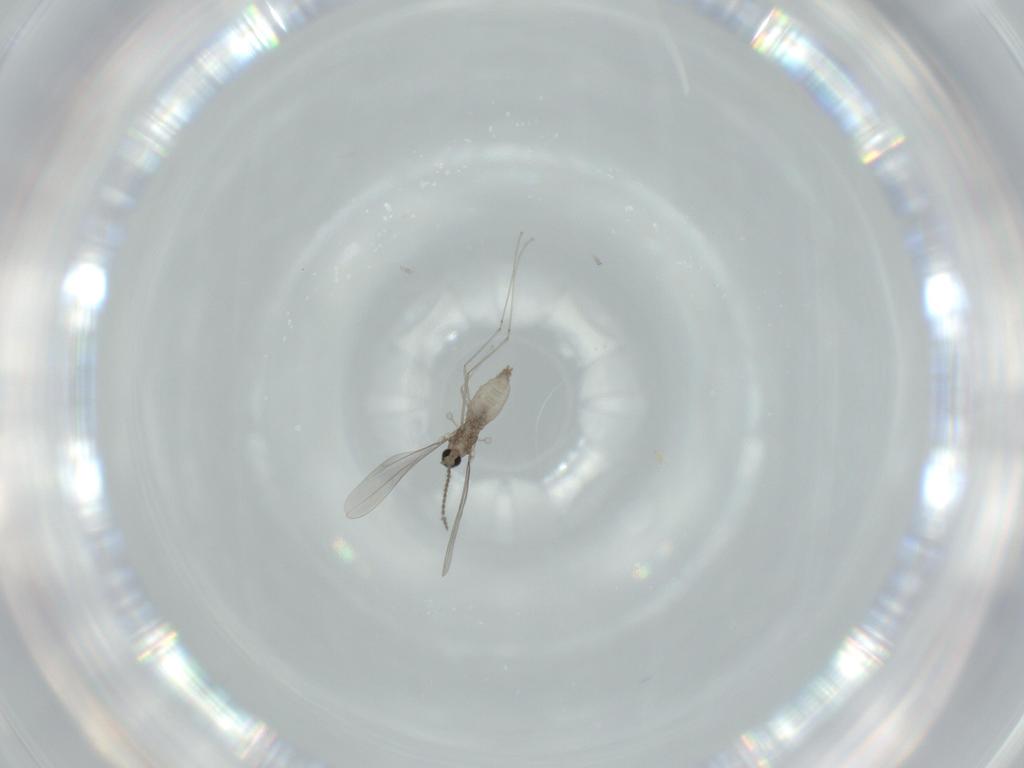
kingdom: Animalia
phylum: Arthropoda
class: Insecta
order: Diptera
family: Cecidomyiidae
